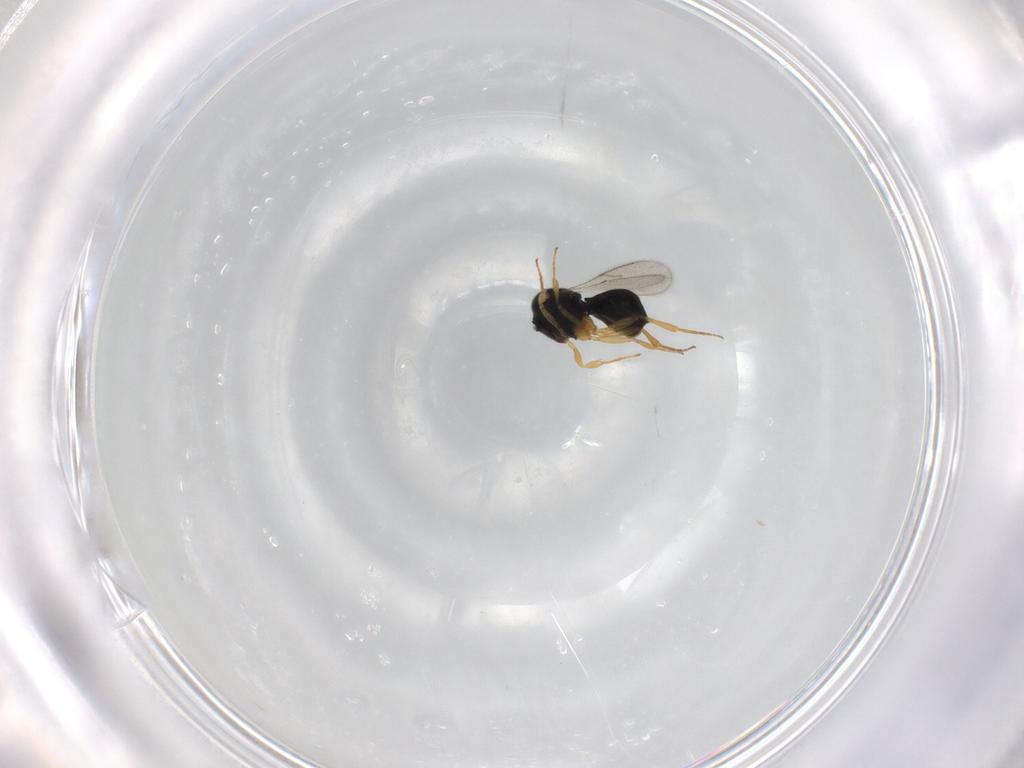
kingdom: Animalia
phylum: Arthropoda
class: Insecta
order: Hymenoptera
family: Scelionidae
